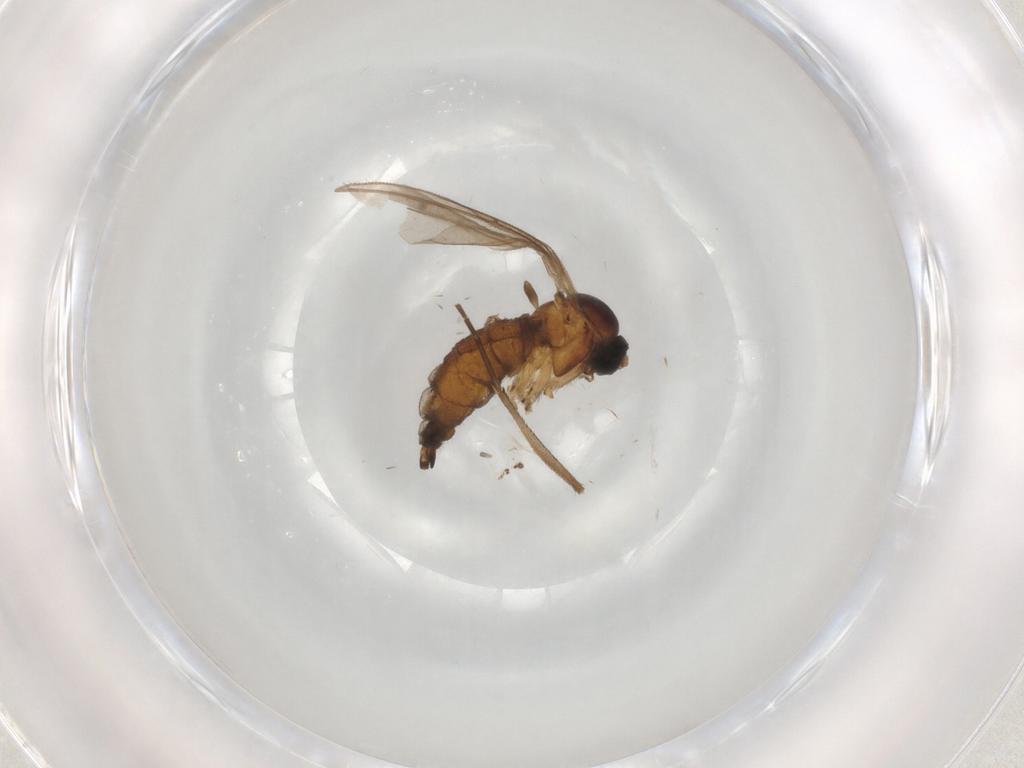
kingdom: Animalia
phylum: Arthropoda
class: Insecta
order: Diptera
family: Sciaridae
